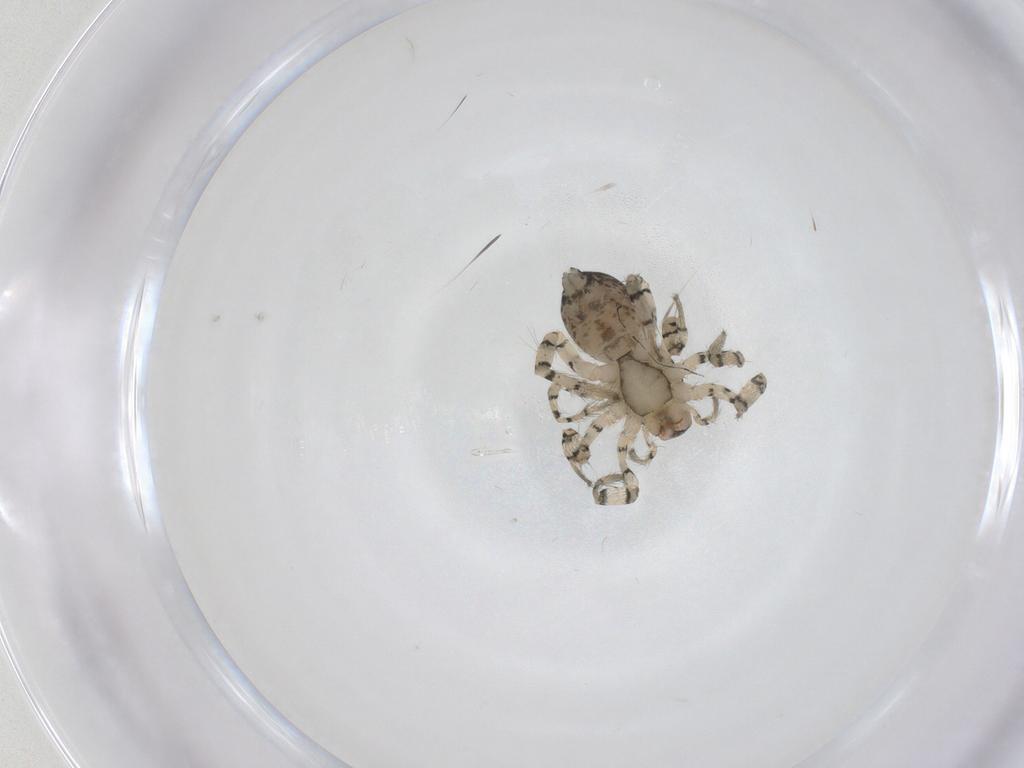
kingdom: Animalia
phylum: Arthropoda
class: Arachnida
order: Araneae
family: Anyphaenidae
